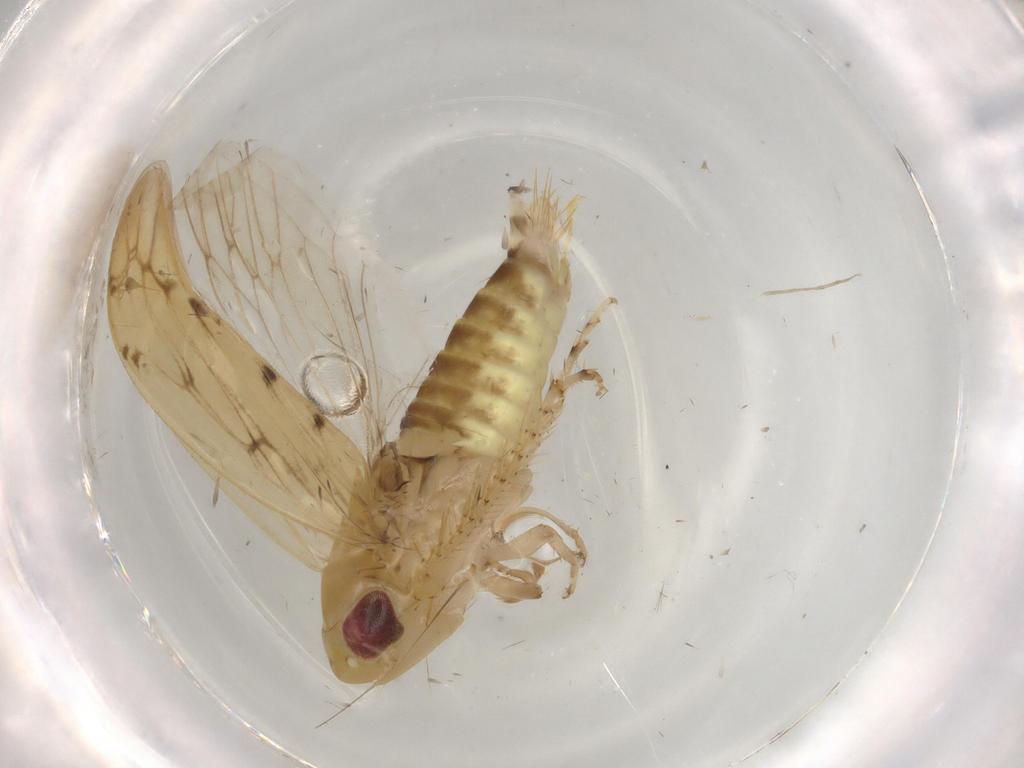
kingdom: Animalia
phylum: Arthropoda
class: Insecta
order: Hemiptera
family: Cicadellidae
